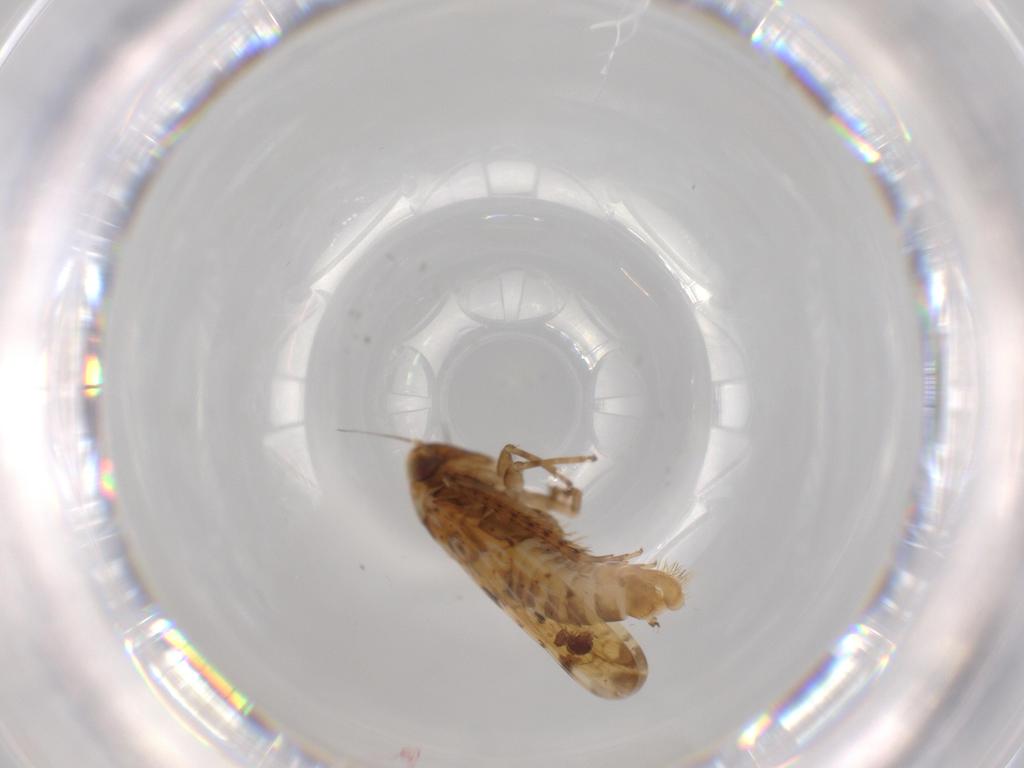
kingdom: Animalia
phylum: Arthropoda
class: Insecta
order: Hemiptera
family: Cicadellidae
